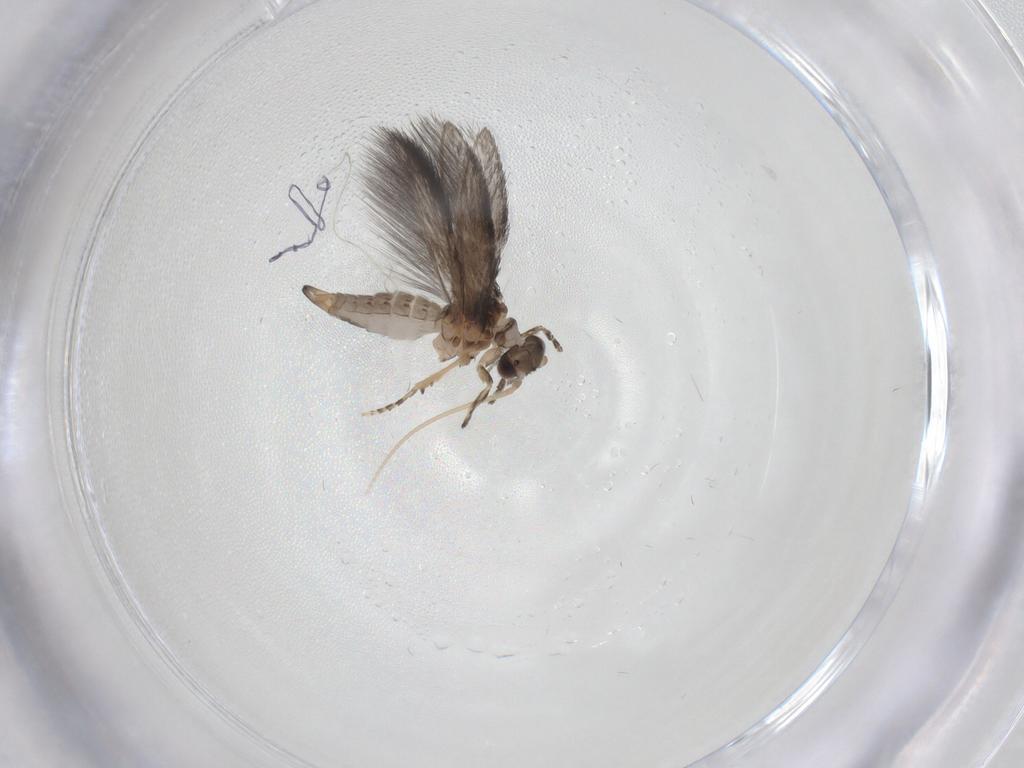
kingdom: Animalia
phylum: Arthropoda
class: Insecta
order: Trichoptera
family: Hydroptilidae
